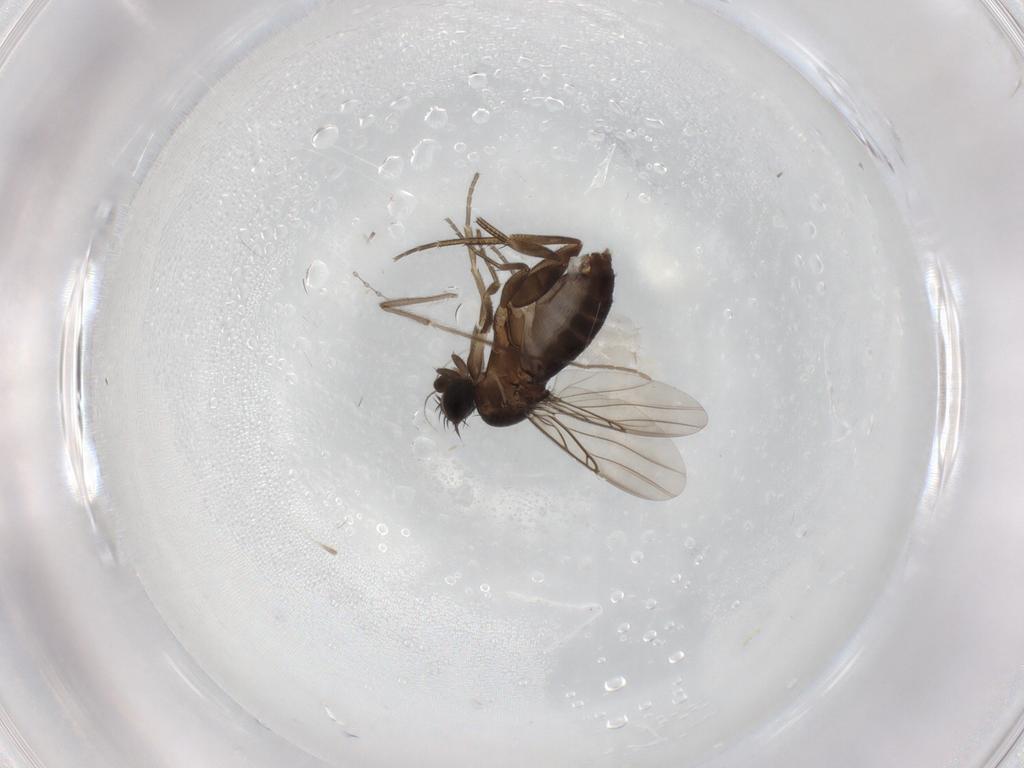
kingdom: Animalia
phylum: Arthropoda
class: Insecta
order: Diptera
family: Phoridae
